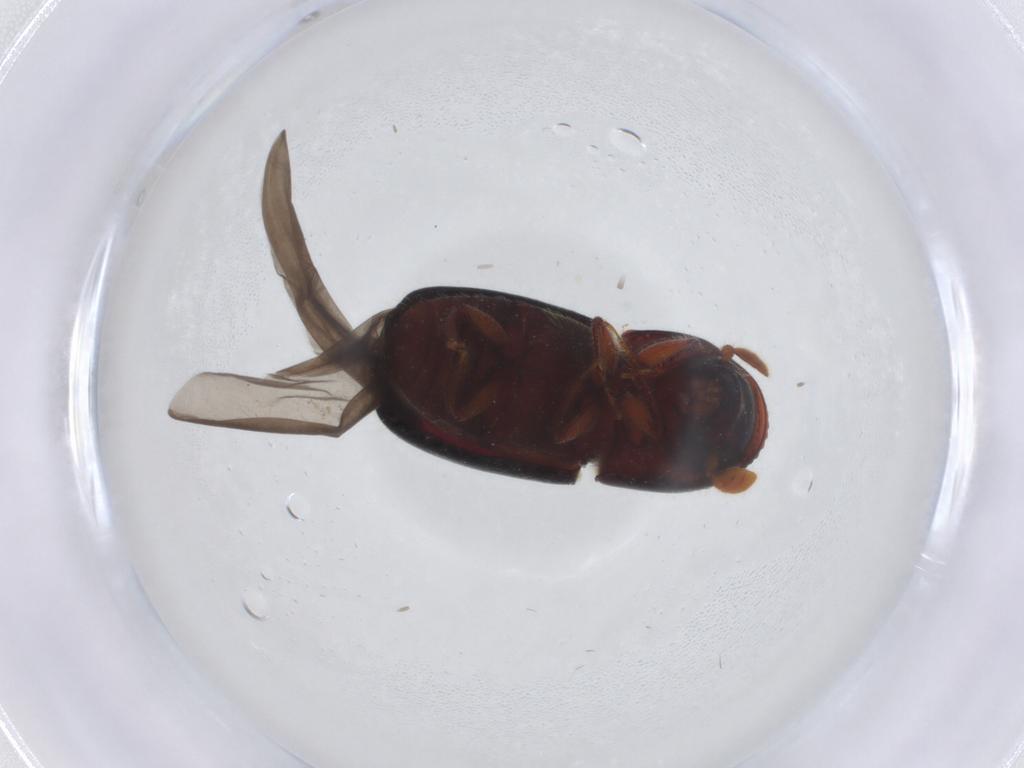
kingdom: Animalia
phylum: Arthropoda
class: Insecta
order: Coleoptera
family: Curculionidae
